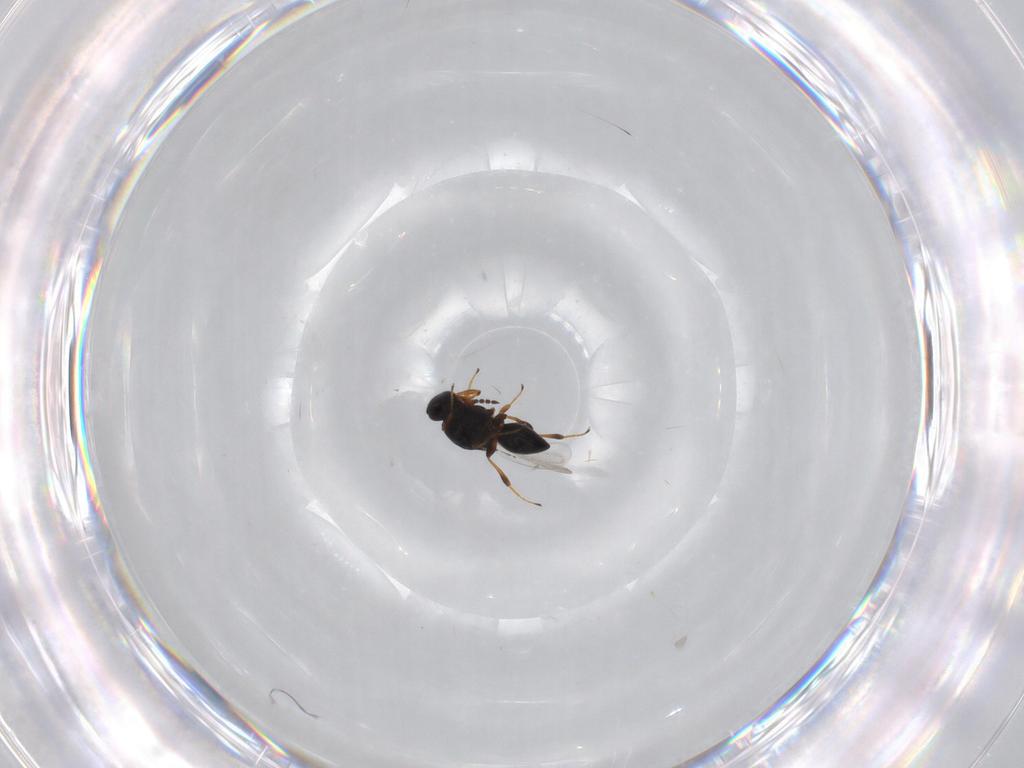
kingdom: Animalia
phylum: Arthropoda
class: Insecta
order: Hymenoptera
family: Platygastridae
